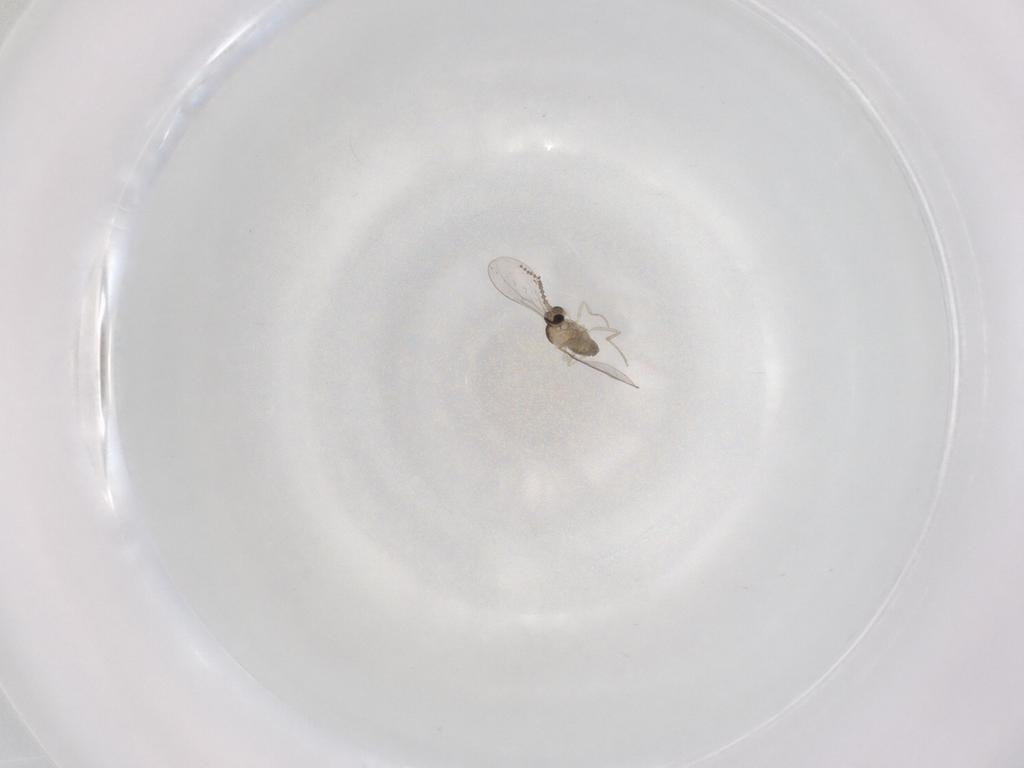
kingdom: Animalia
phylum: Arthropoda
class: Insecta
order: Diptera
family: Cecidomyiidae
